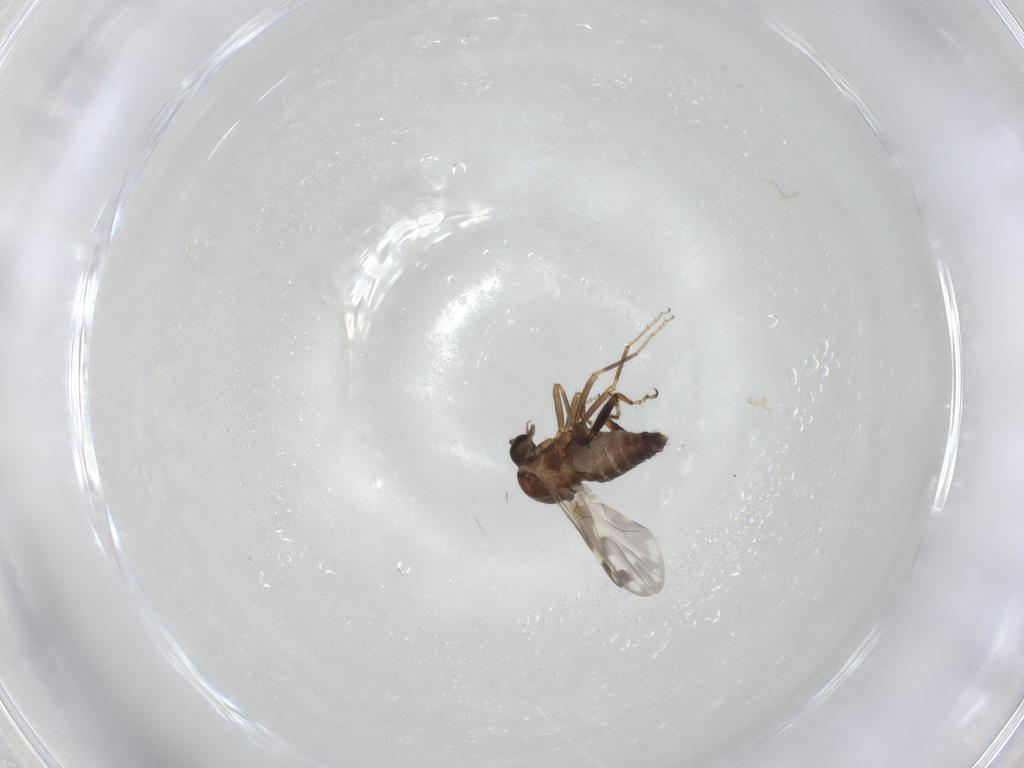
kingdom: Animalia
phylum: Arthropoda
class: Insecta
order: Diptera
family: Ceratopogonidae
